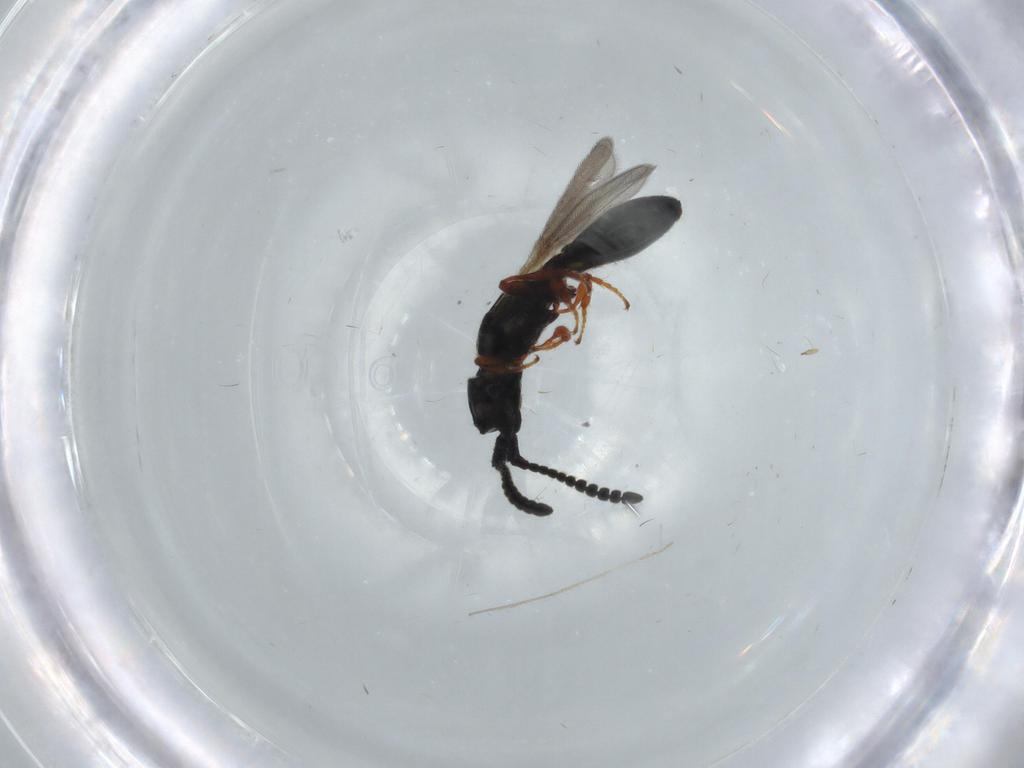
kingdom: Animalia
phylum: Arthropoda
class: Insecta
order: Hymenoptera
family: Diapriidae
